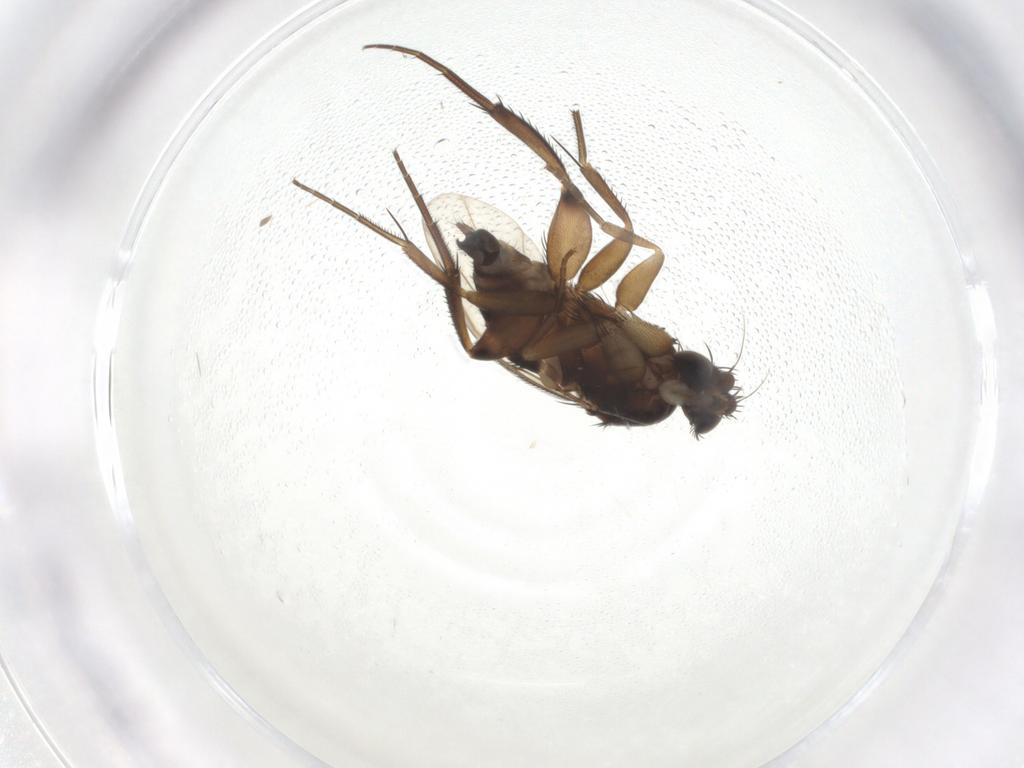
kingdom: Animalia
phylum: Arthropoda
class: Insecta
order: Diptera
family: Phoridae
